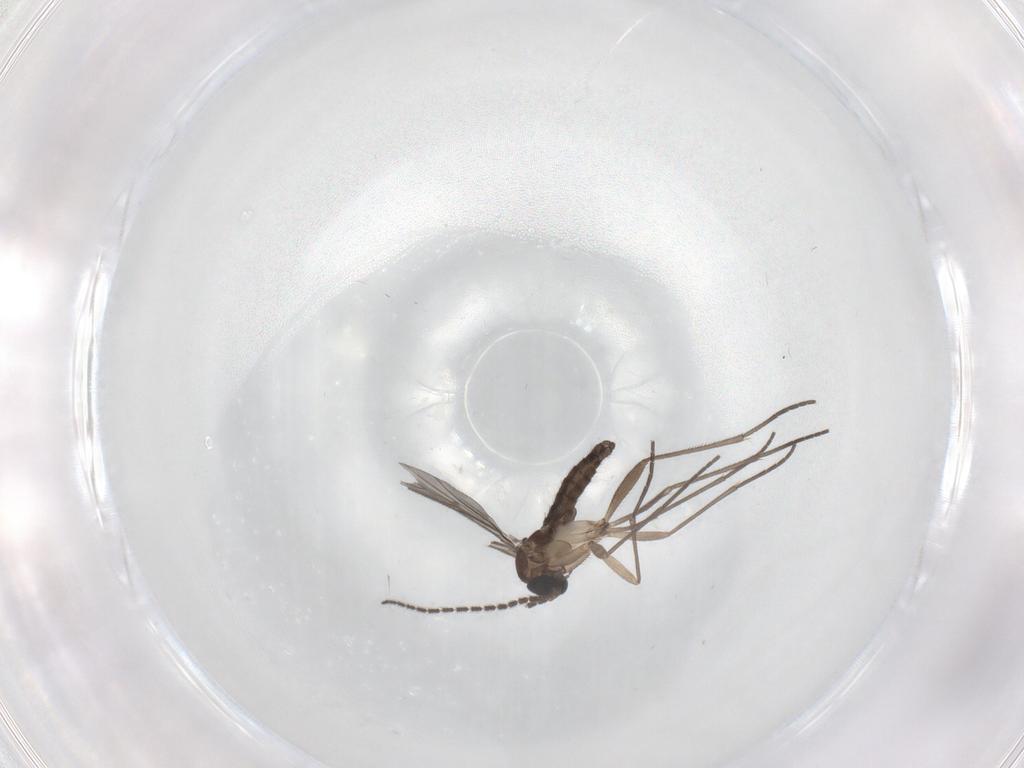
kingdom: Animalia
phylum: Arthropoda
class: Insecta
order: Diptera
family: Sciaridae
